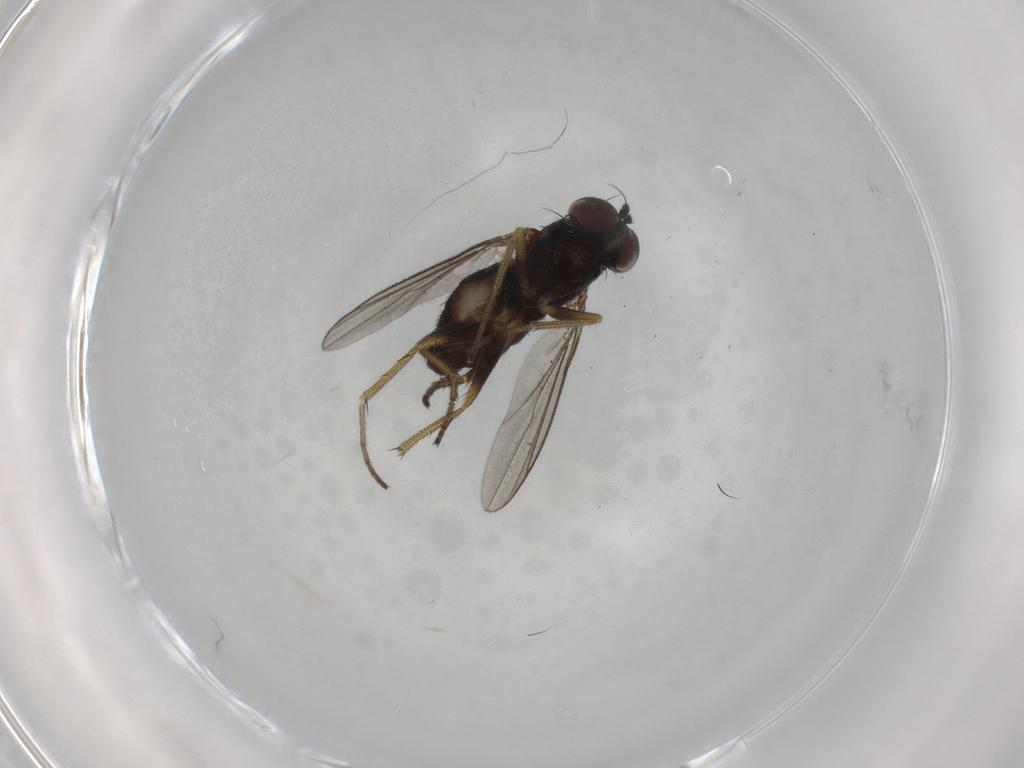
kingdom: Animalia
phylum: Arthropoda
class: Insecta
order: Diptera
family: Dolichopodidae
